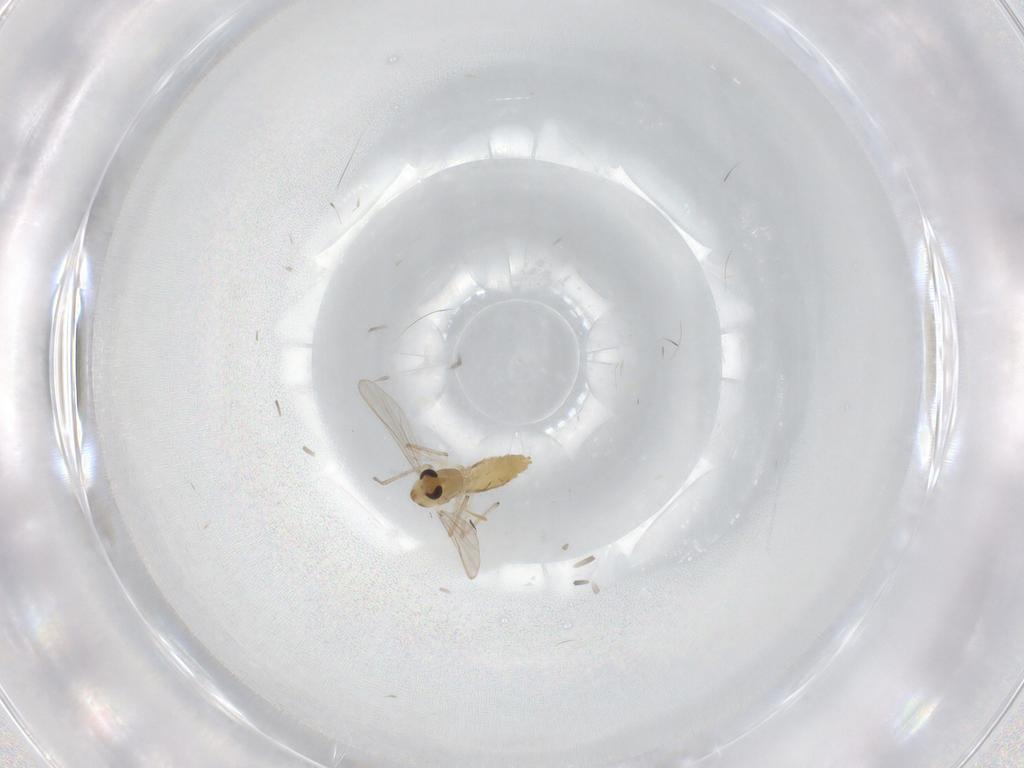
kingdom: Animalia
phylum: Arthropoda
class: Insecta
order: Diptera
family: Chironomidae
